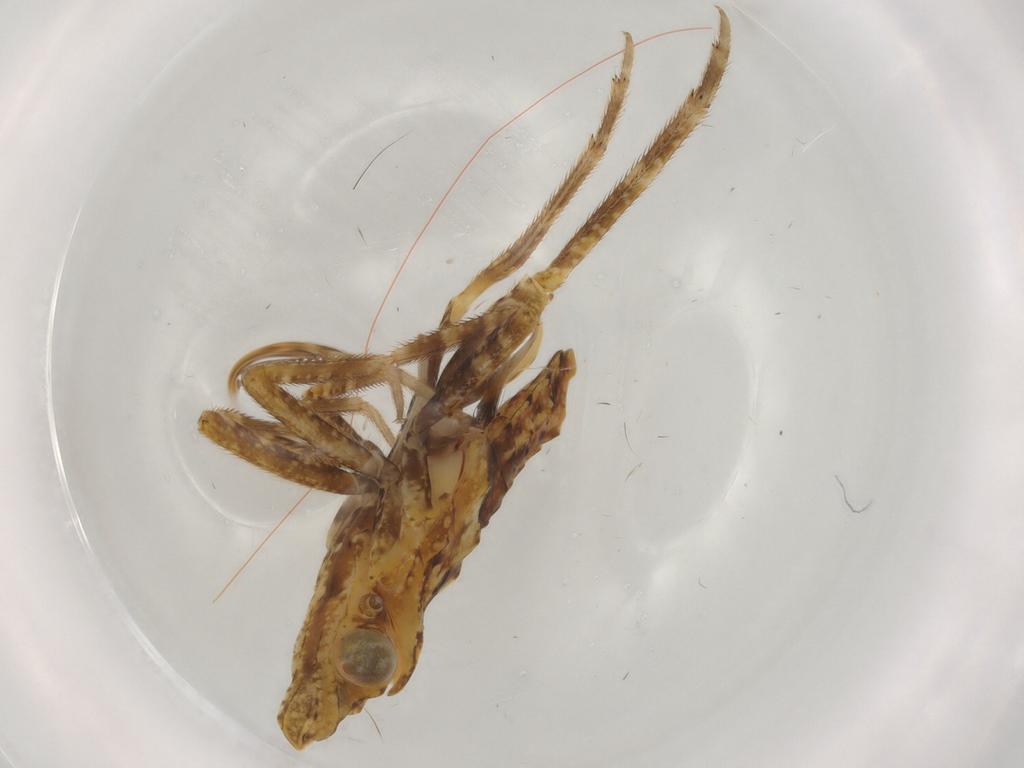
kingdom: Animalia
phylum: Arthropoda
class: Insecta
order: Hemiptera
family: Fulgoridae
